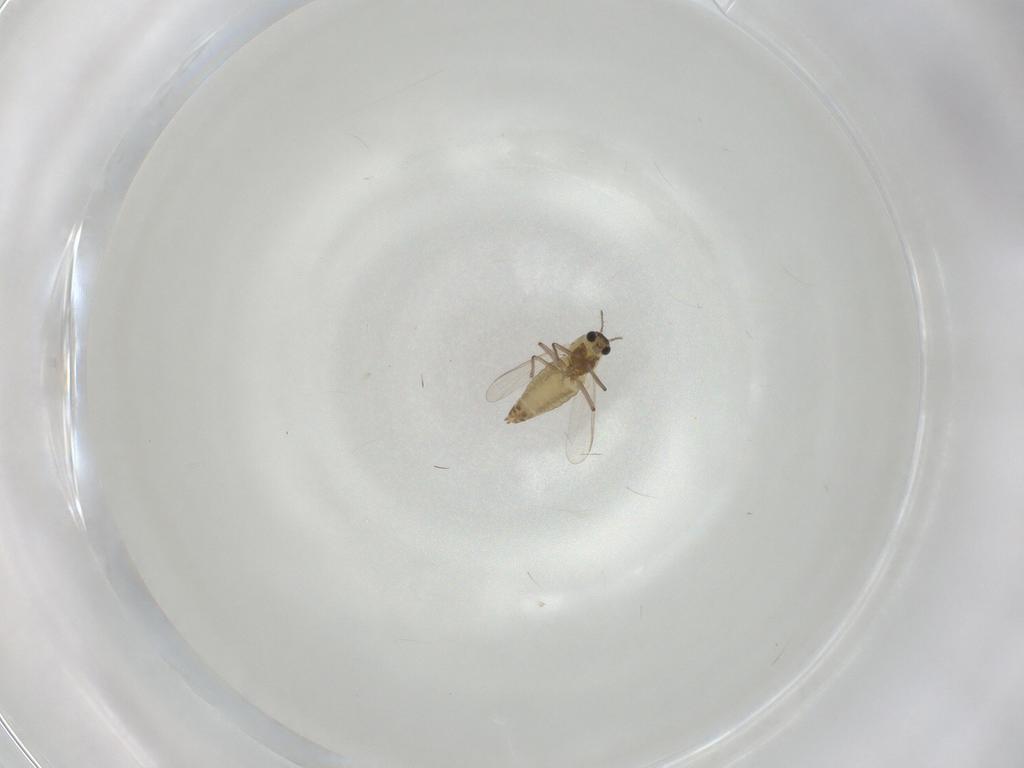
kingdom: Animalia
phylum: Arthropoda
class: Insecta
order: Diptera
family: Chironomidae
